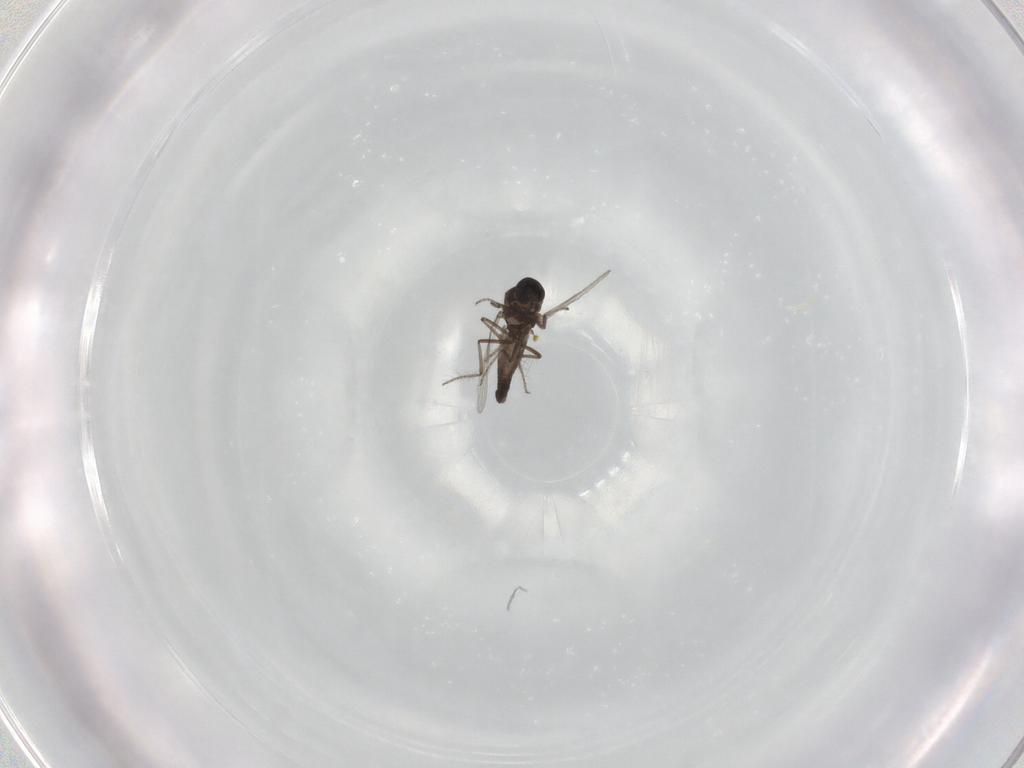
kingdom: Animalia
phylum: Arthropoda
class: Insecta
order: Diptera
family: Ceratopogonidae
